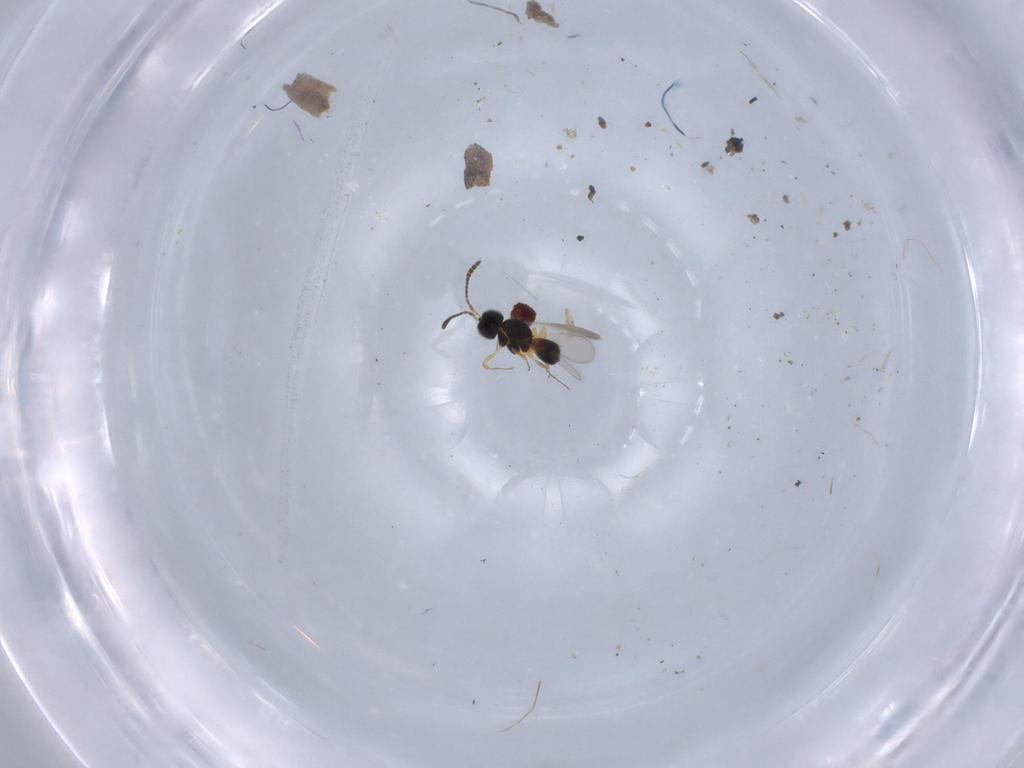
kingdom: Animalia
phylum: Arthropoda
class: Insecta
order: Hymenoptera
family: Scelionidae
